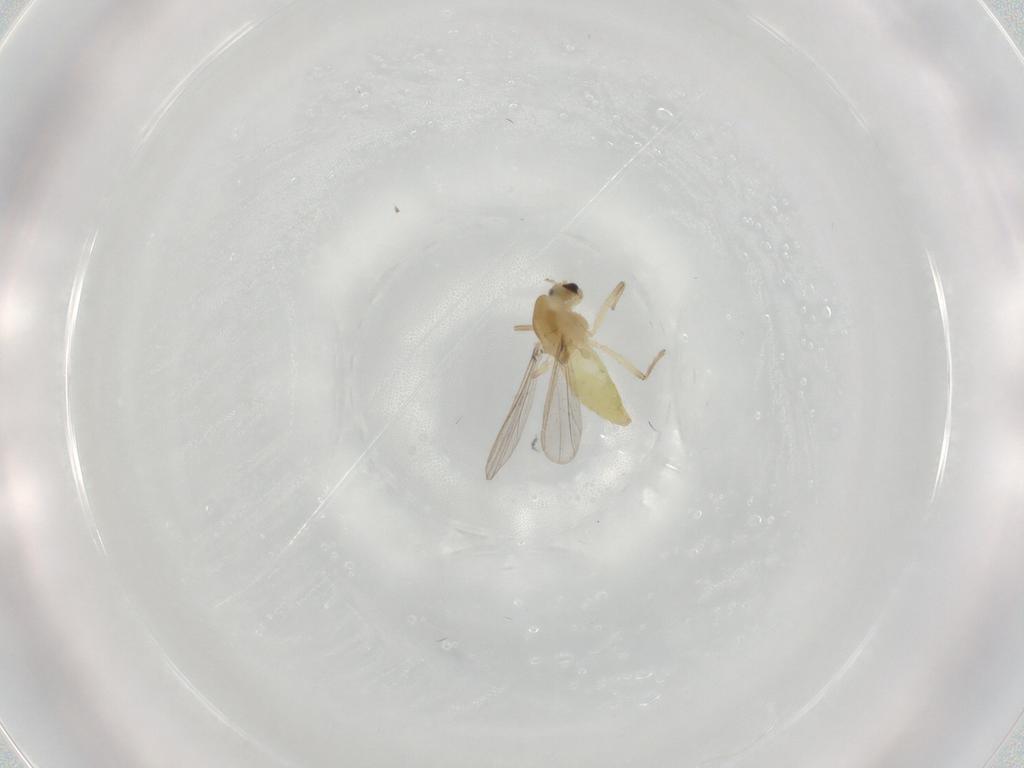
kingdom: Animalia
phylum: Arthropoda
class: Insecta
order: Diptera
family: Chironomidae
